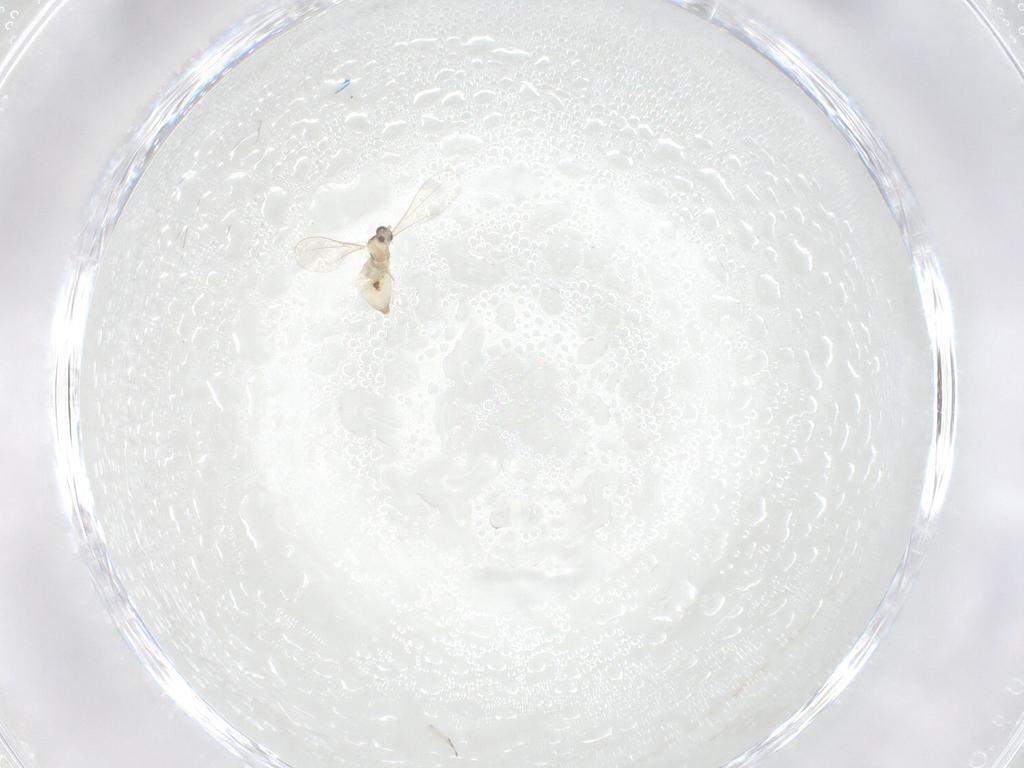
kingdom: Animalia
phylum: Arthropoda
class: Insecta
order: Diptera
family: Cecidomyiidae
